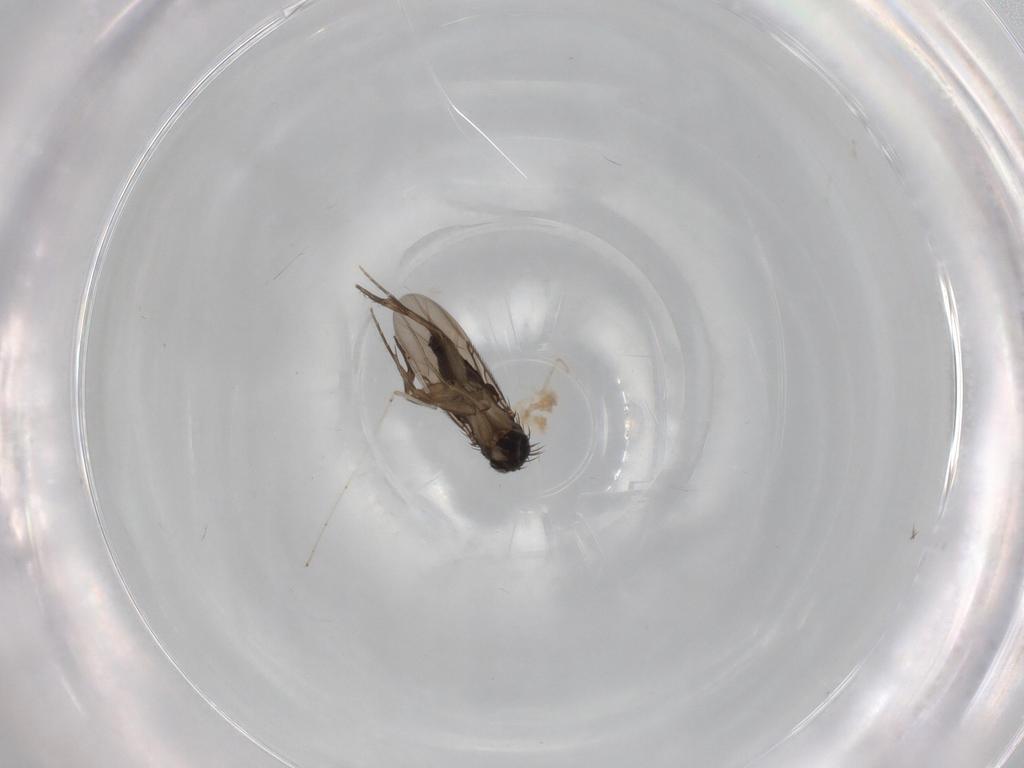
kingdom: Animalia
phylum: Arthropoda
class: Insecta
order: Diptera
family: Phoridae
